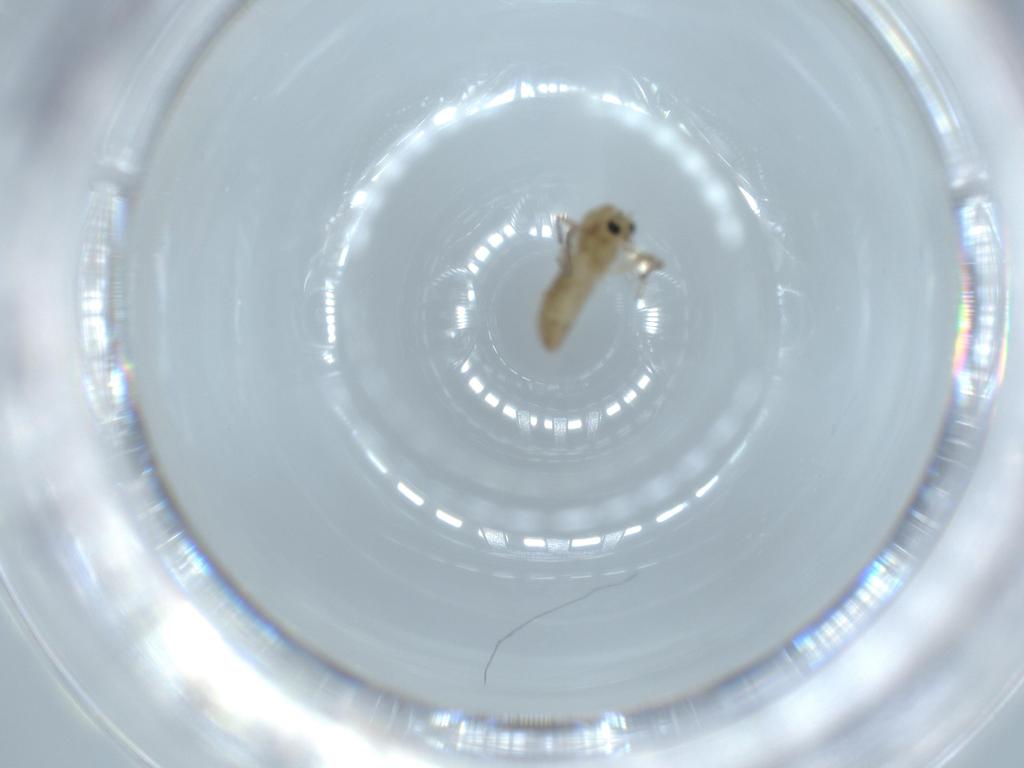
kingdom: Animalia
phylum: Arthropoda
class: Insecta
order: Diptera
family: Chironomidae
